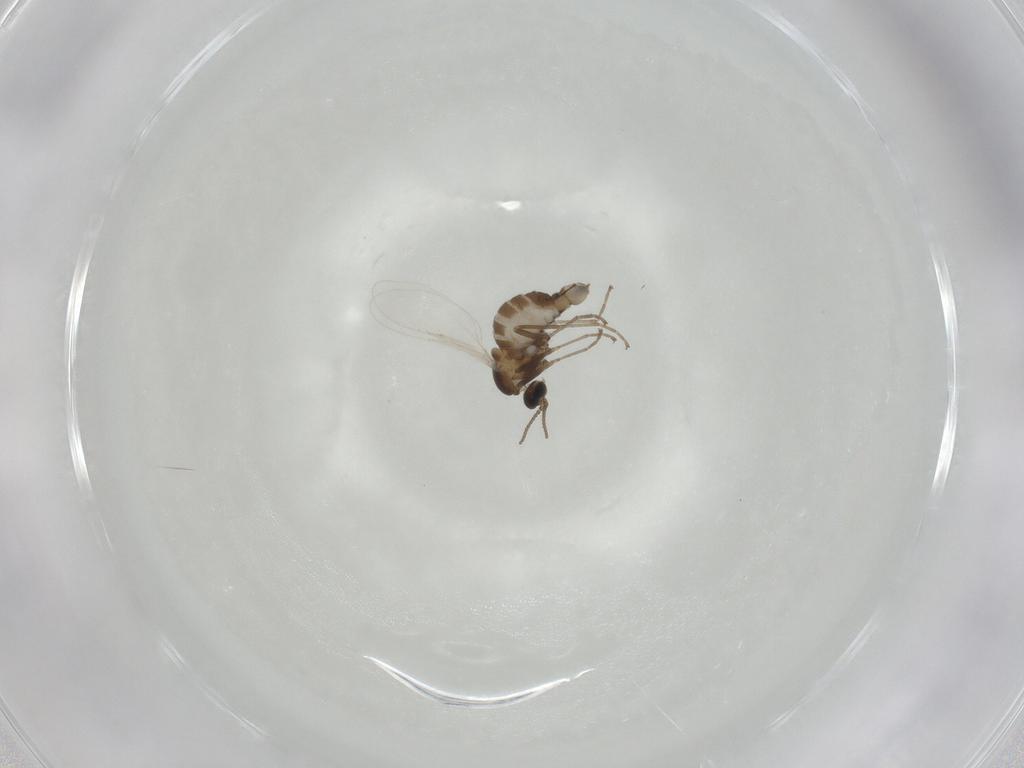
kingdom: Animalia
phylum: Arthropoda
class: Insecta
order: Diptera
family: Cecidomyiidae
